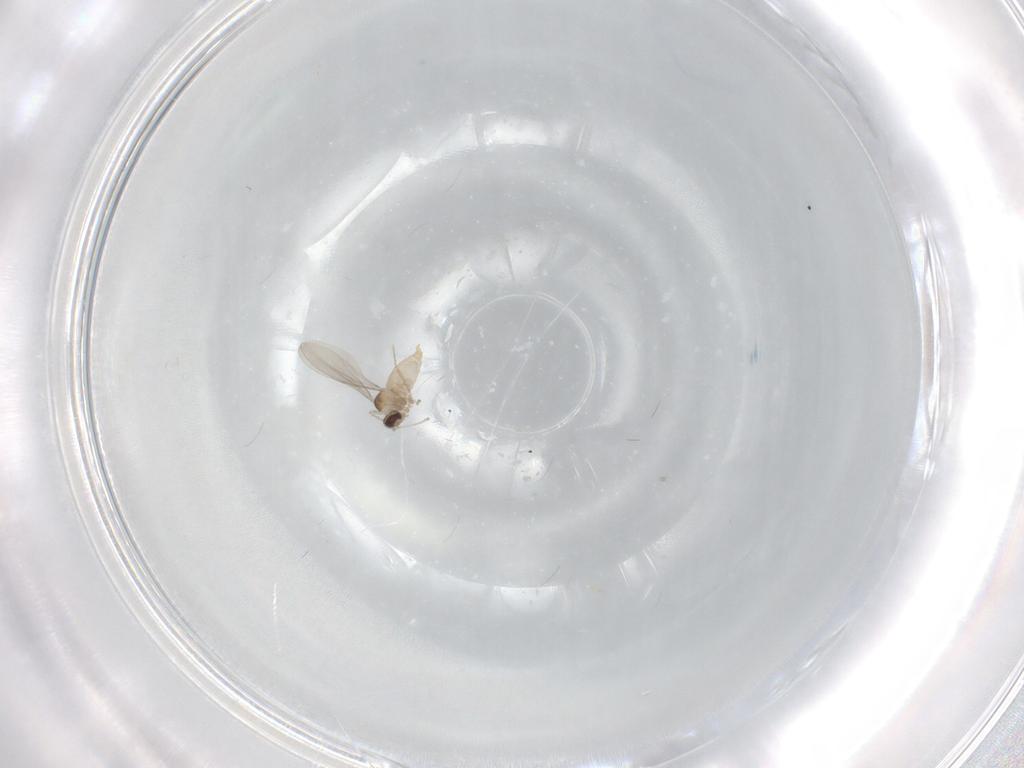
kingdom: Animalia
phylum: Arthropoda
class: Insecta
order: Diptera
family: Cecidomyiidae
